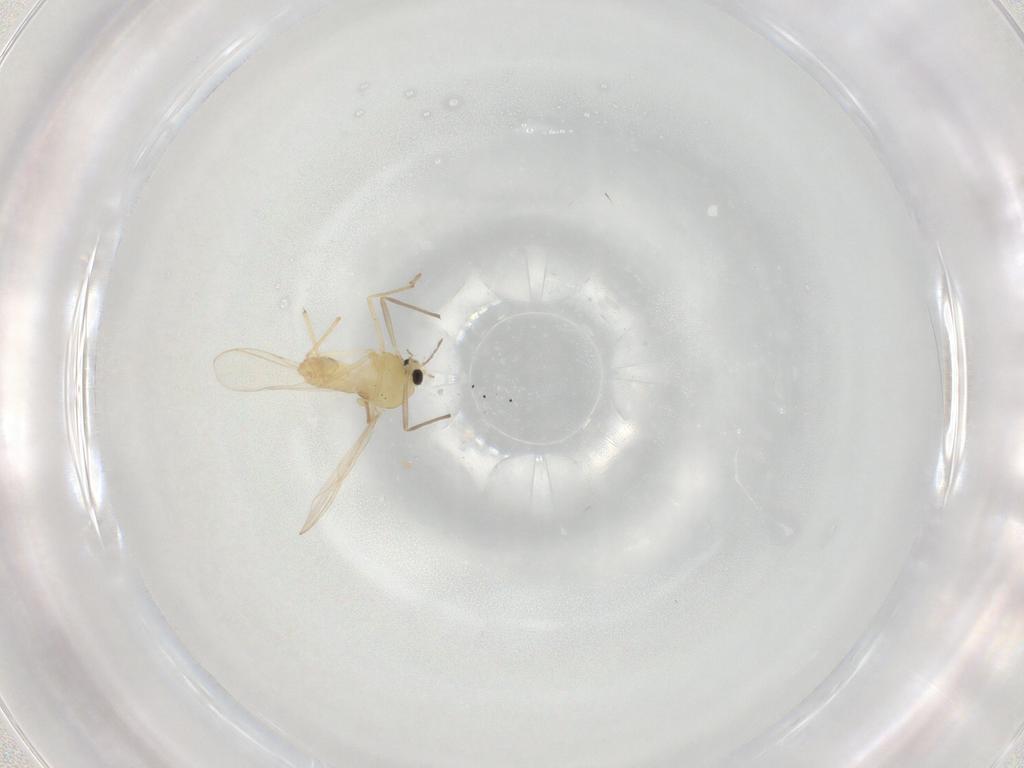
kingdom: Animalia
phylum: Arthropoda
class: Insecta
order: Diptera
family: Chironomidae
